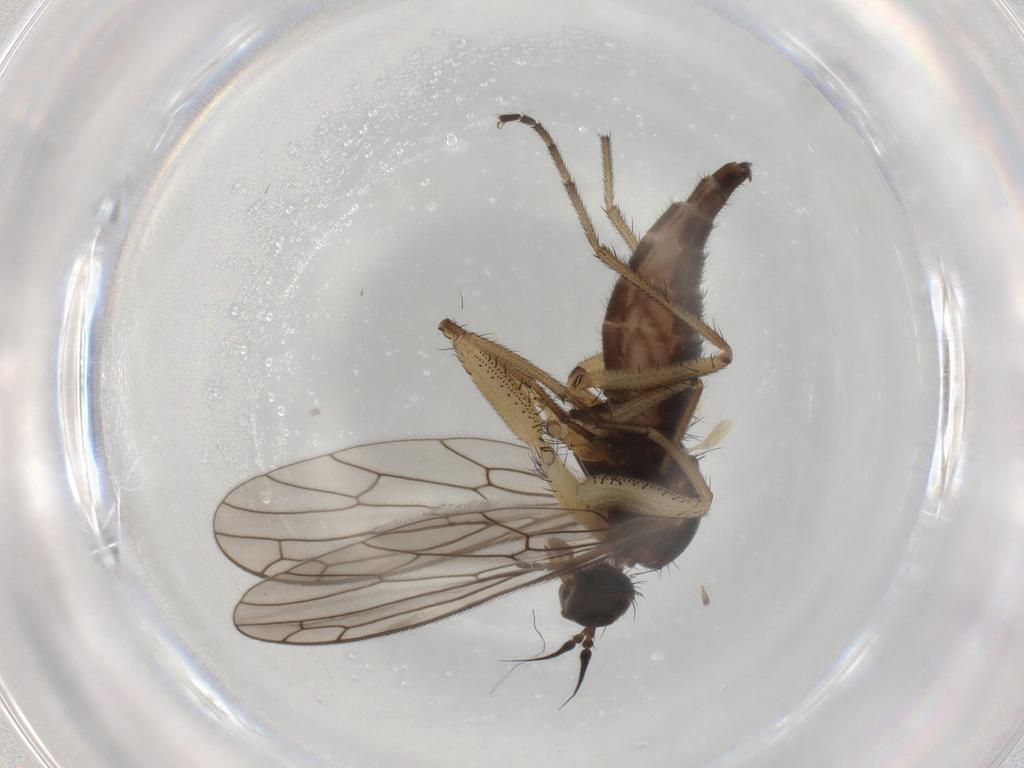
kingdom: Animalia
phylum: Arthropoda
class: Insecta
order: Diptera
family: Empididae
